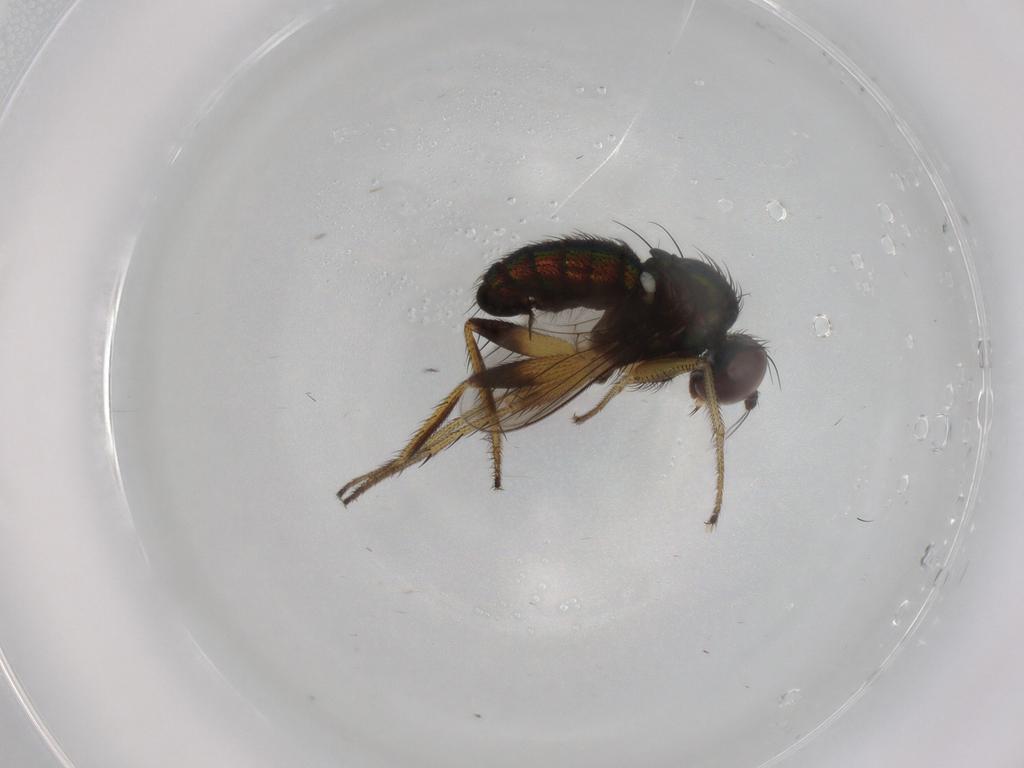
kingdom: Animalia
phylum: Arthropoda
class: Insecta
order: Diptera
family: Dolichopodidae
